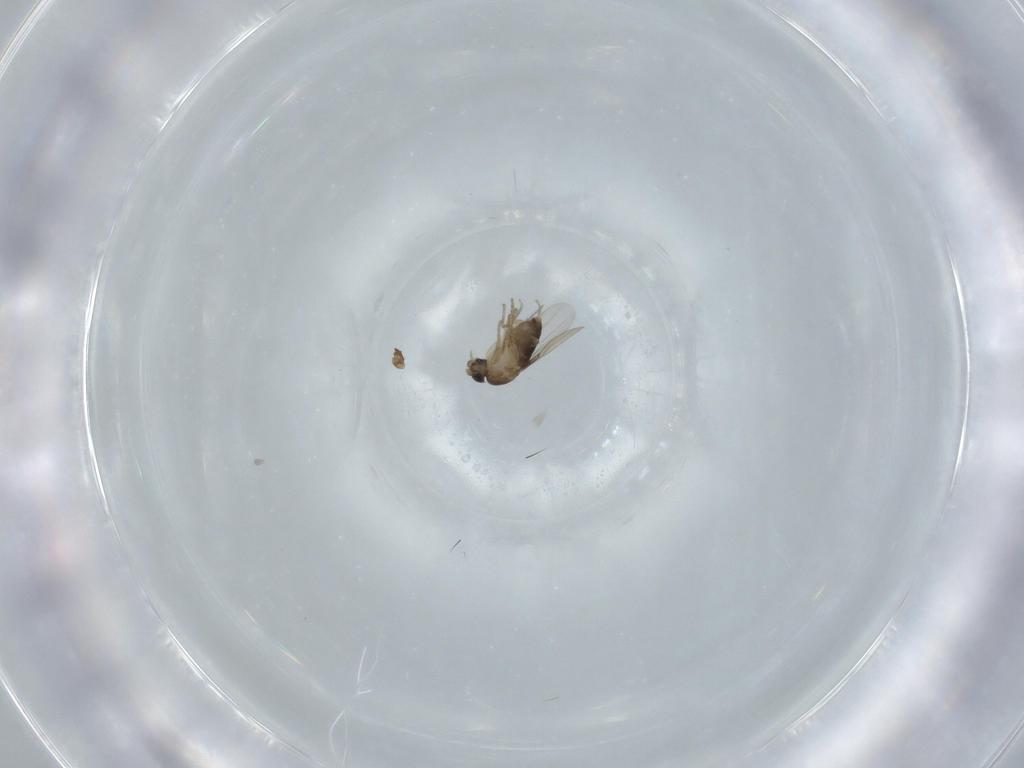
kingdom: Animalia
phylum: Arthropoda
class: Insecta
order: Diptera
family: Phoridae
